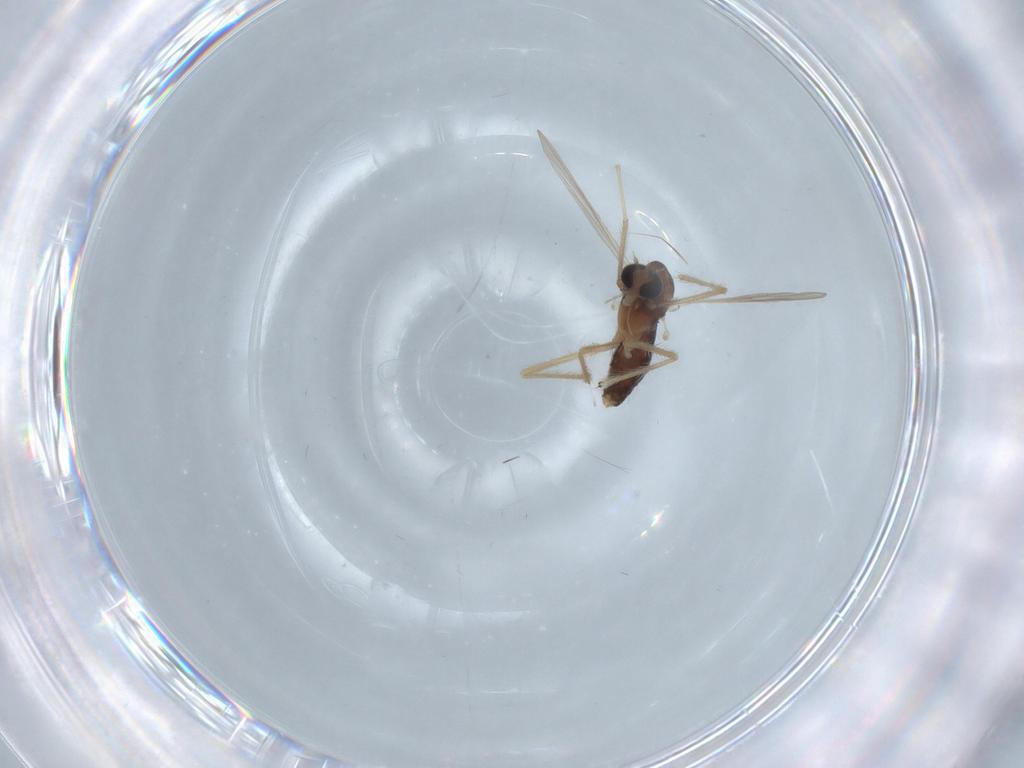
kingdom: Animalia
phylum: Arthropoda
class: Insecta
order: Diptera
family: Chironomidae
